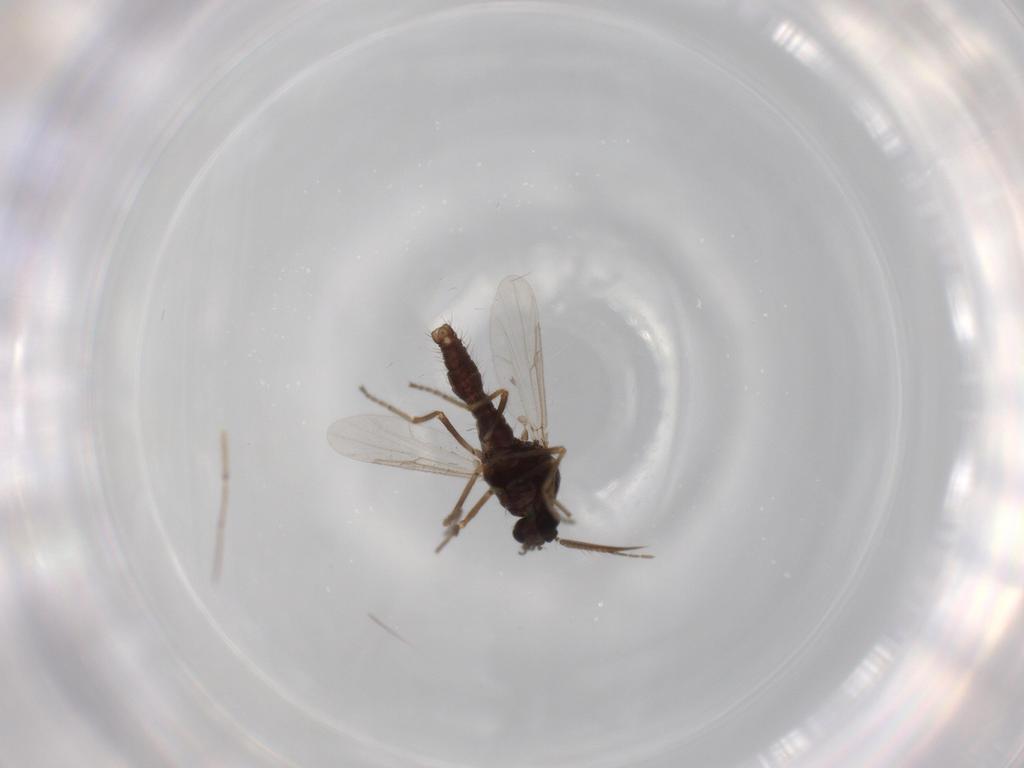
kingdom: Animalia
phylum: Arthropoda
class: Insecta
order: Diptera
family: Ceratopogonidae
